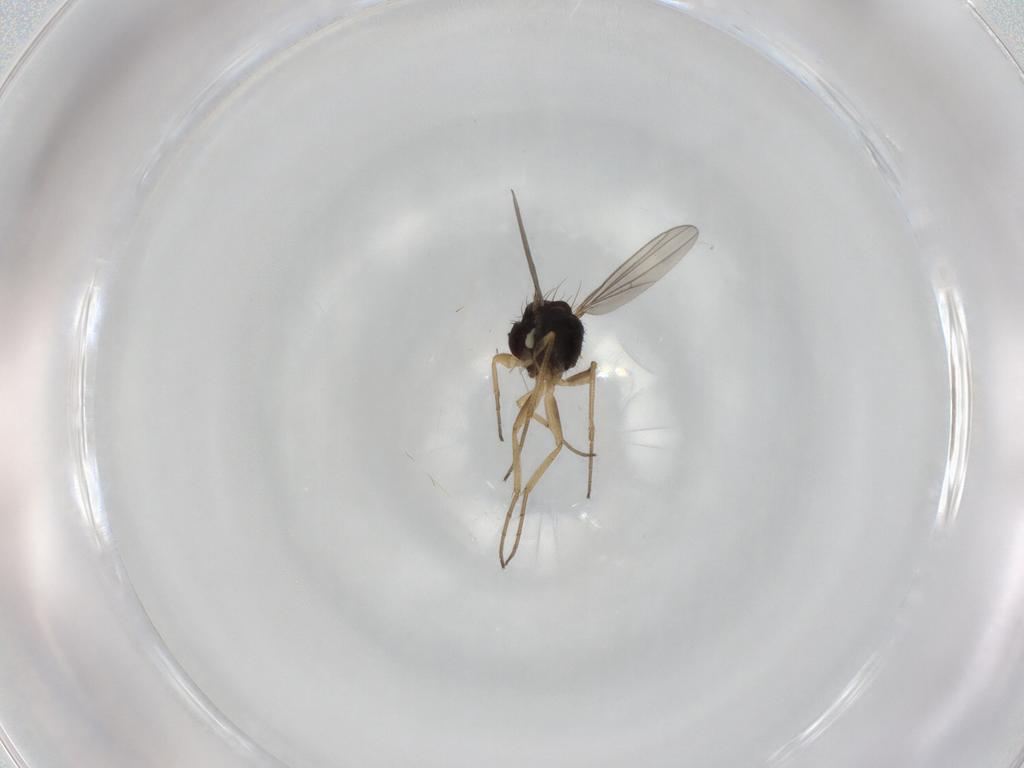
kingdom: Animalia
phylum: Arthropoda
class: Insecta
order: Diptera
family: Dolichopodidae
